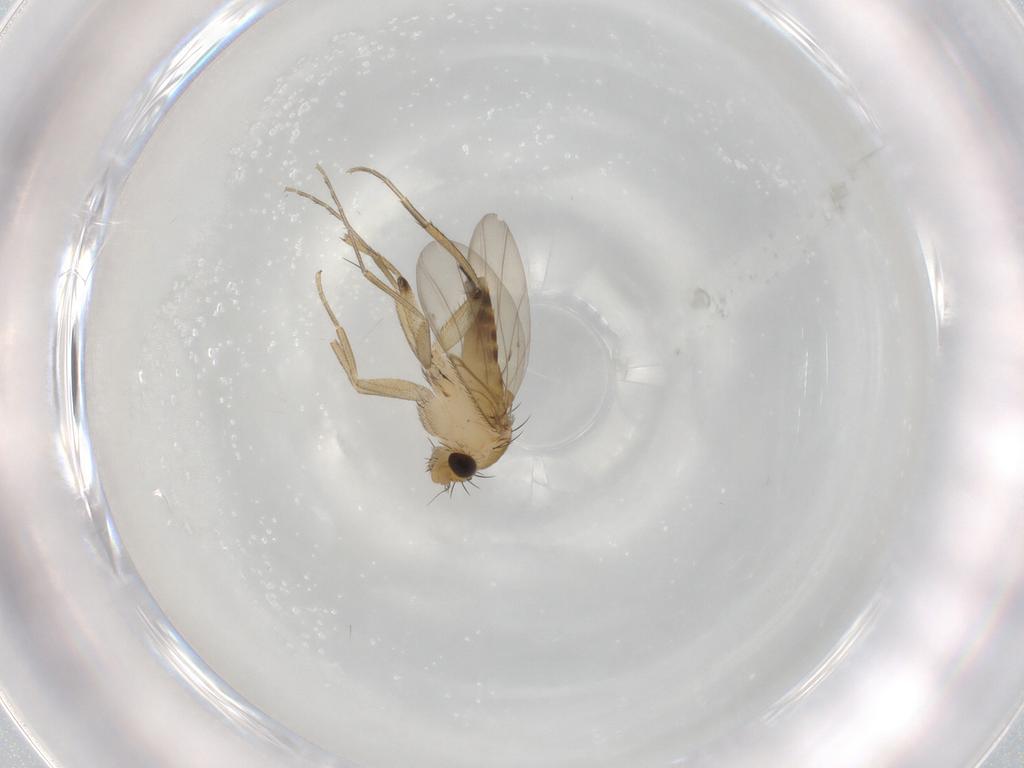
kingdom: Animalia
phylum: Arthropoda
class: Insecta
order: Diptera
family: Phoridae
